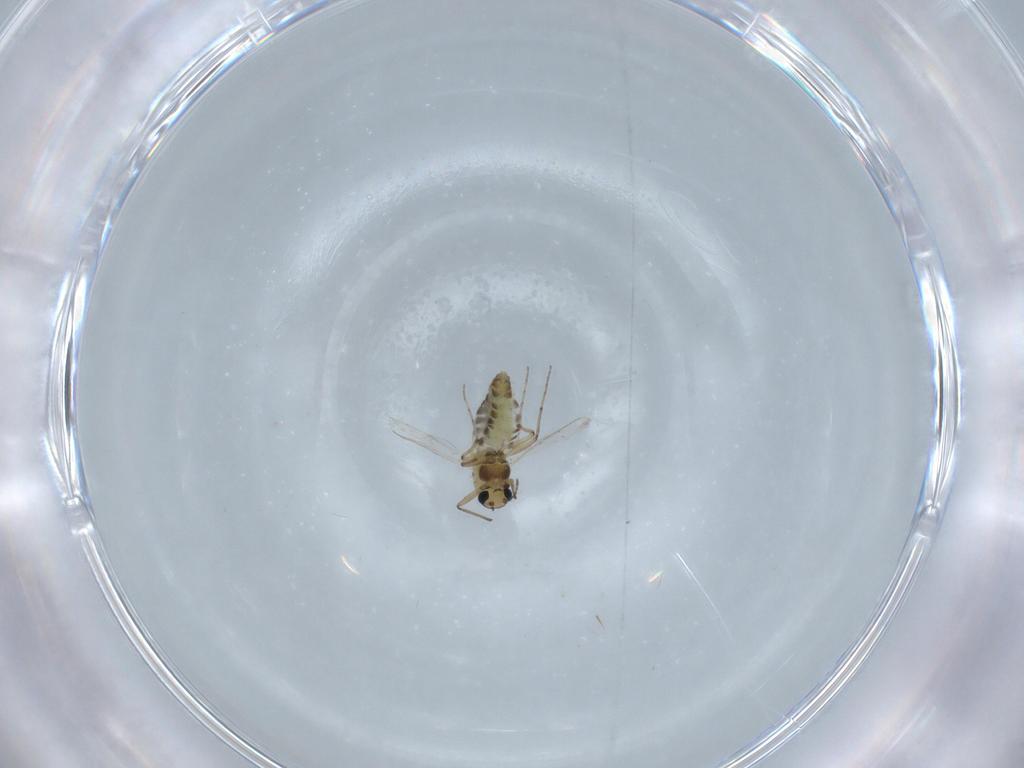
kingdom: Animalia
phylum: Arthropoda
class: Insecta
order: Diptera
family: Chironomidae
